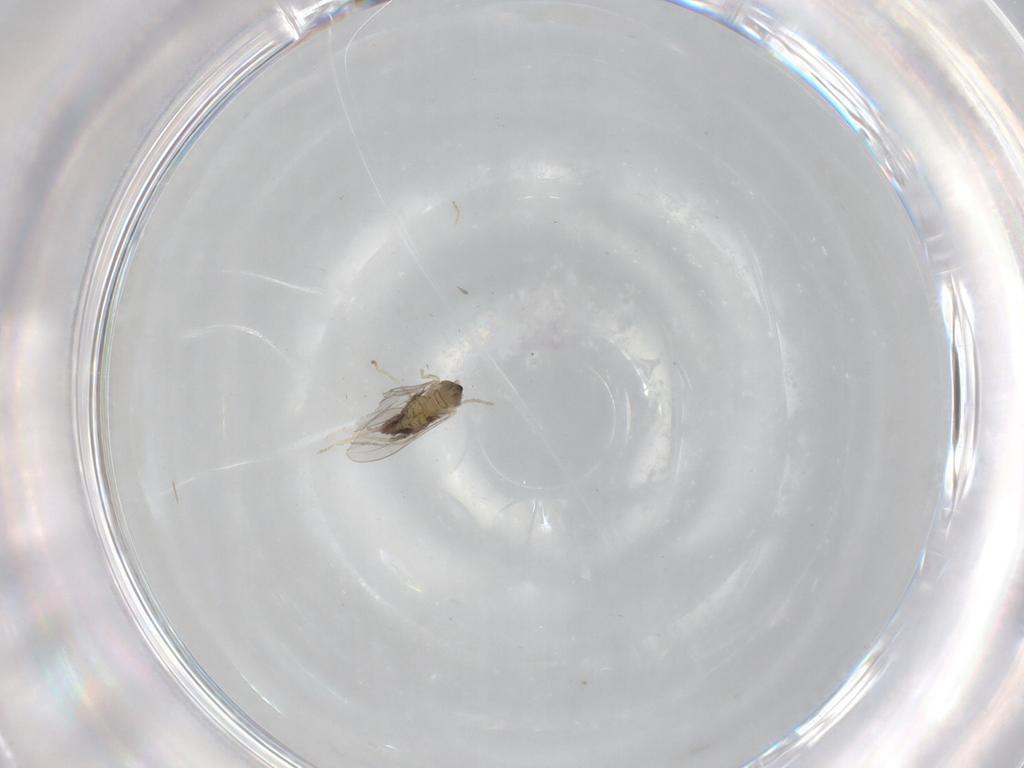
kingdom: Animalia
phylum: Arthropoda
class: Insecta
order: Diptera
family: Cecidomyiidae
